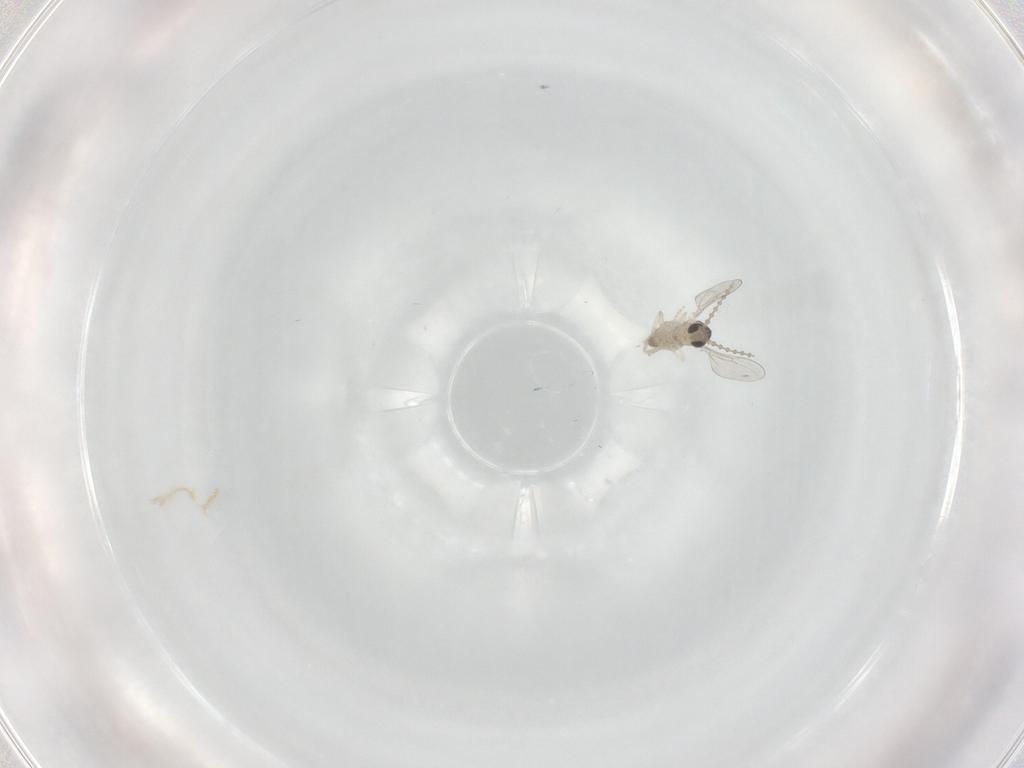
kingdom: Animalia
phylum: Arthropoda
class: Insecta
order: Diptera
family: Cecidomyiidae
